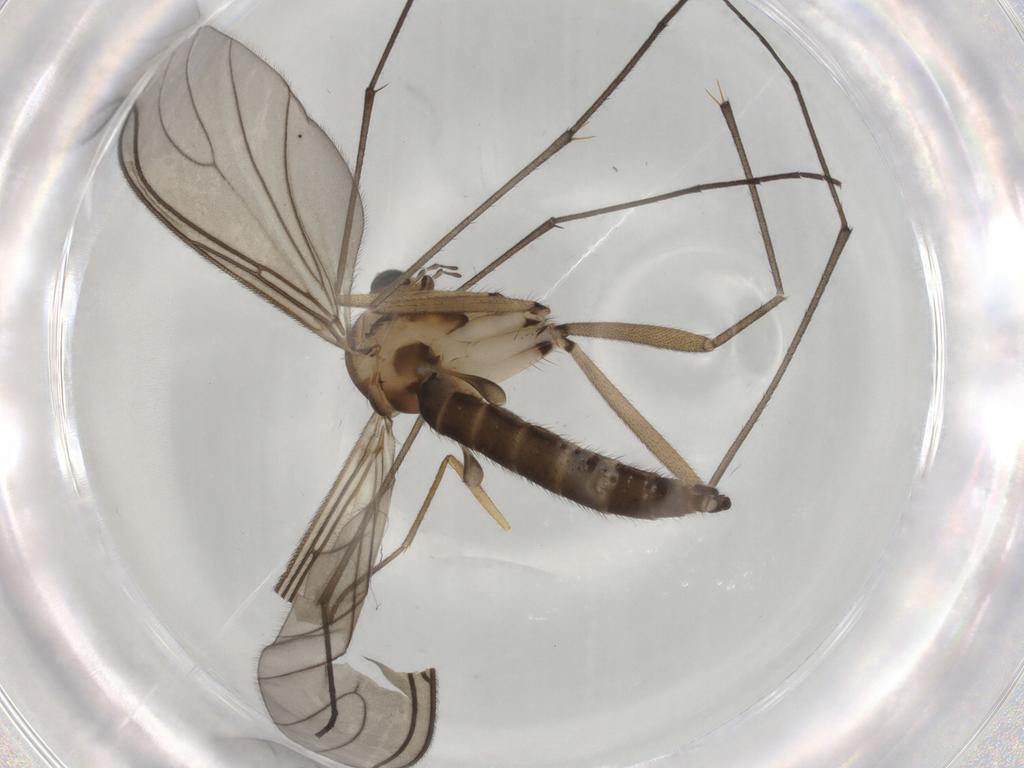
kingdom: Animalia
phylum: Arthropoda
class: Insecta
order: Diptera
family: Sciaridae
